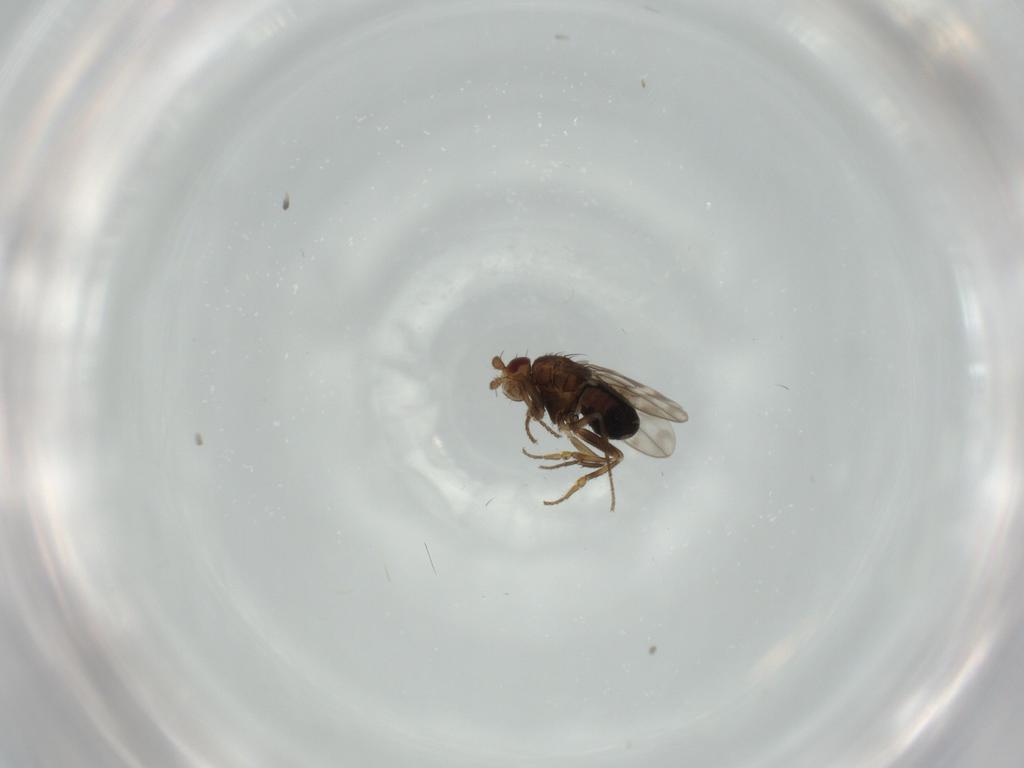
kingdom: Animalia
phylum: Arthropoda
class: Insecta
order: Diptera
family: Sphaeroceridae
